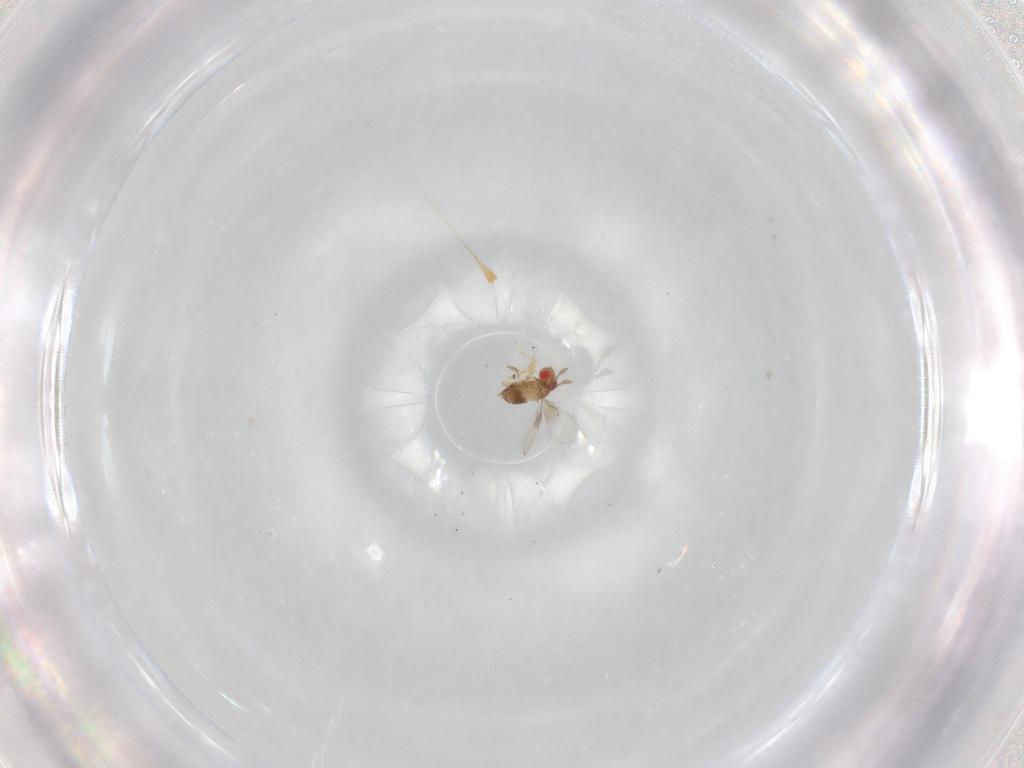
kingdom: Animalia
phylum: Arthropoda
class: Insecta
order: Hymenoptera
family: Trichogrammatidae
